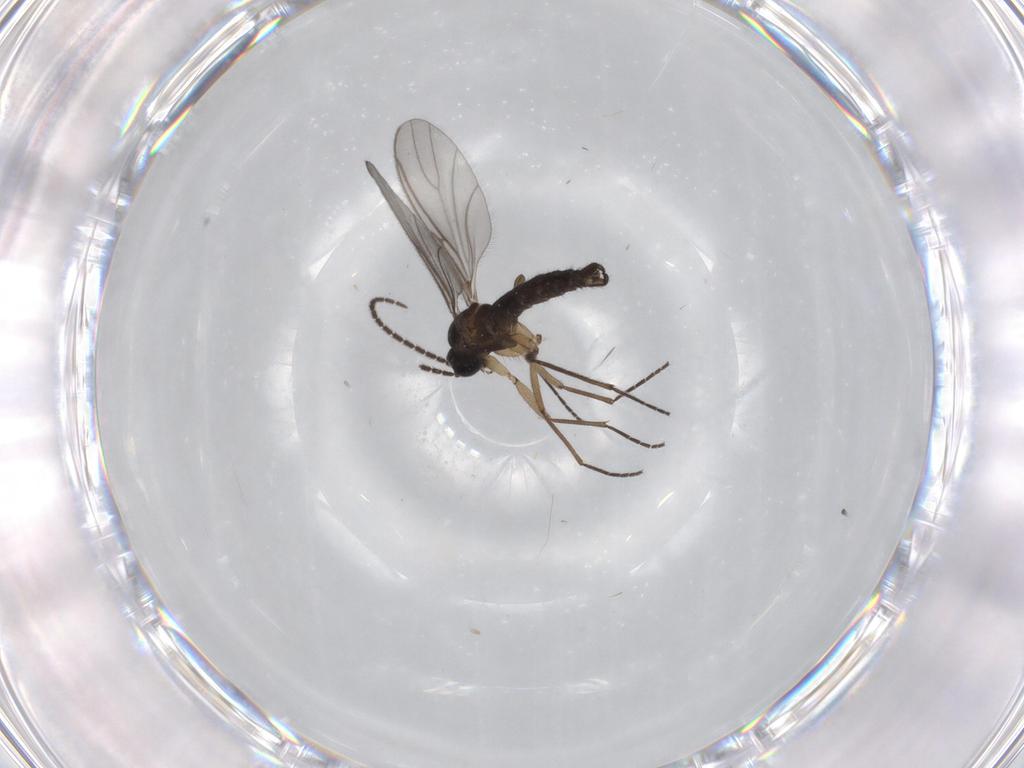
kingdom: Animalia
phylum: Arthropoda
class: Insecta
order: Diptera
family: Sciaridae
